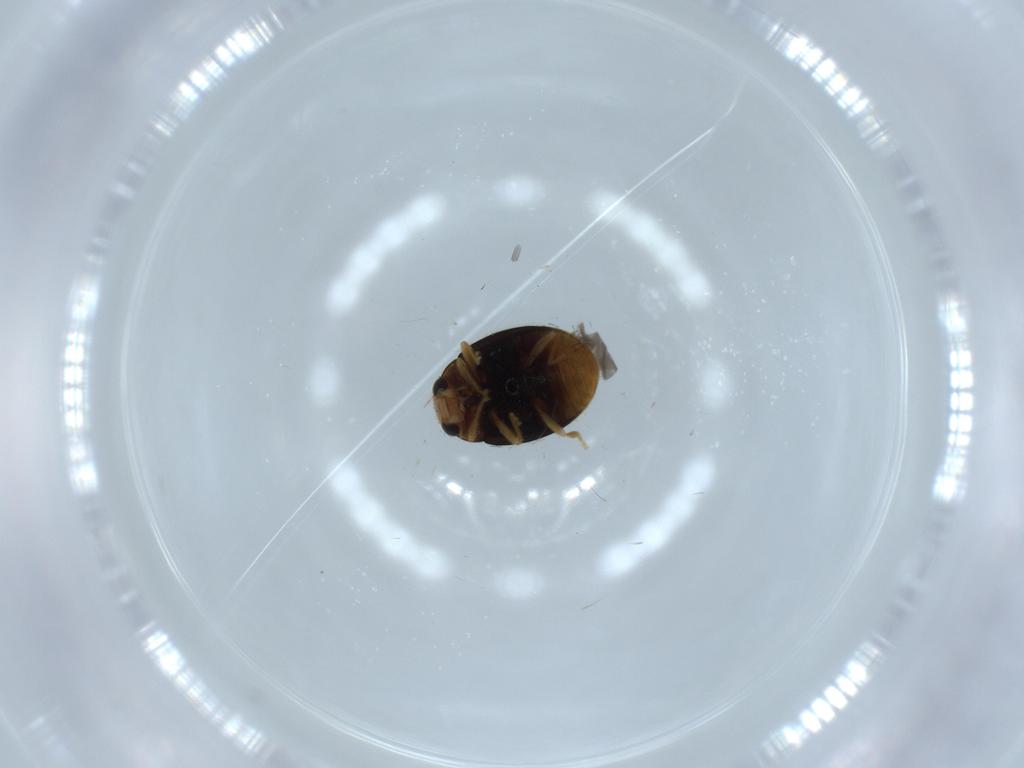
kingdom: Animalia
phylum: Arthropoda
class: Insecta
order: Coleoptera
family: Coccinellidae
